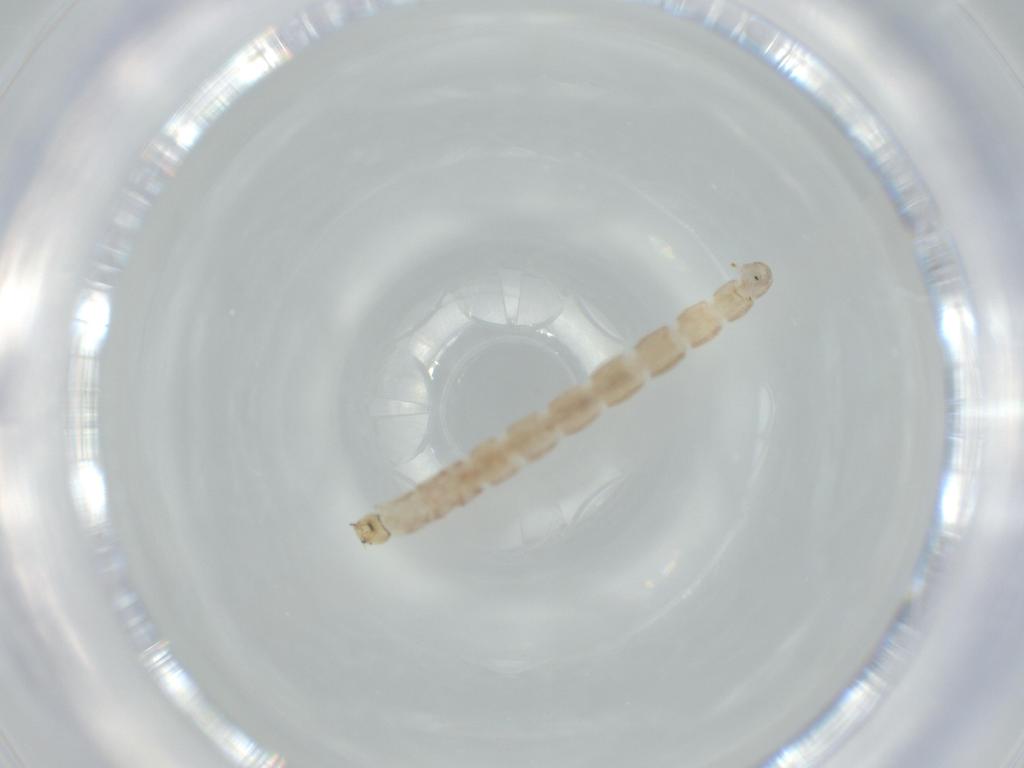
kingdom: Animalia
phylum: Arthropoda
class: Insecta
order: Diptera
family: Chironomidae
